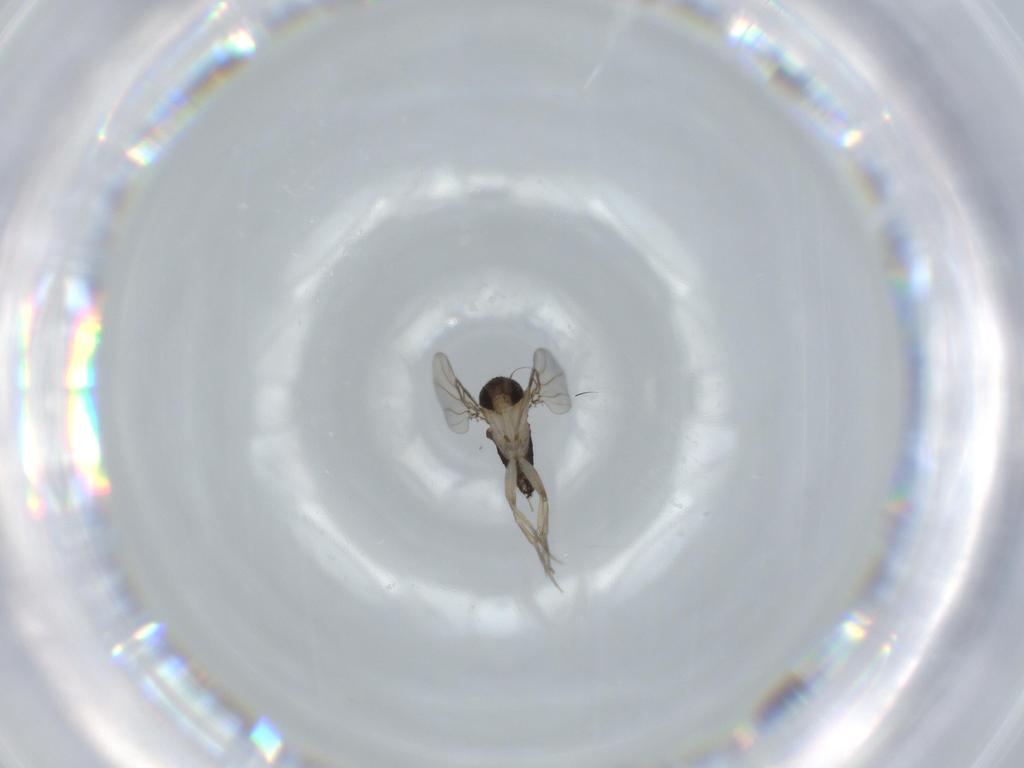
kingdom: Animalia
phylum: Arthropoda
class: Insecta
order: Diptera
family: Phoridae
